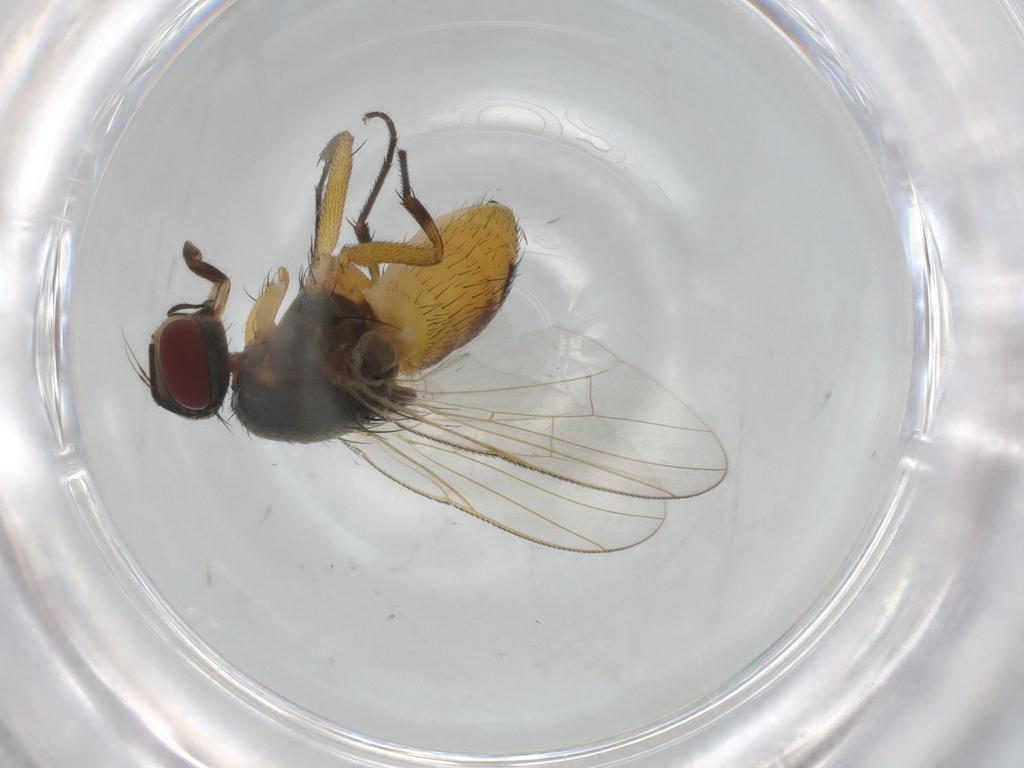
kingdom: Animalia
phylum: Arthropoda
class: Insecta
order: Diptera
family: Muscidae
